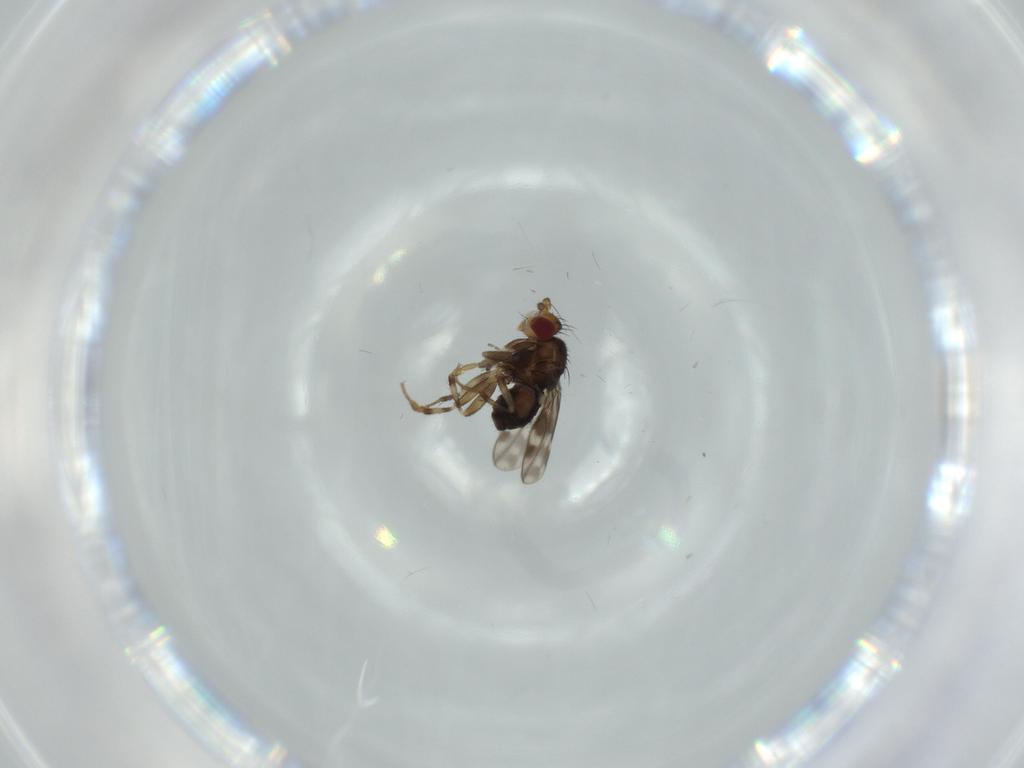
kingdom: Animalia
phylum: Arthropoda
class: Insecta
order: Diptera
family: Sphaeroceridae
